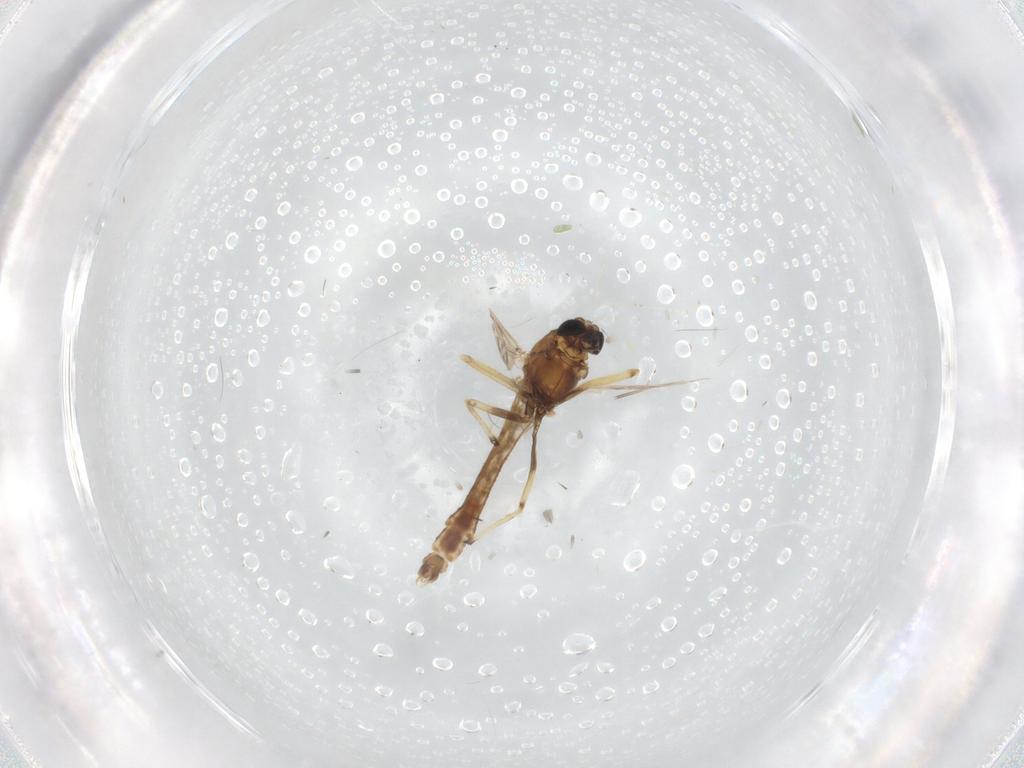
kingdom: Animalia
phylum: Arthropoda
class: Insecta
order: Diptera
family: Chironomidae
